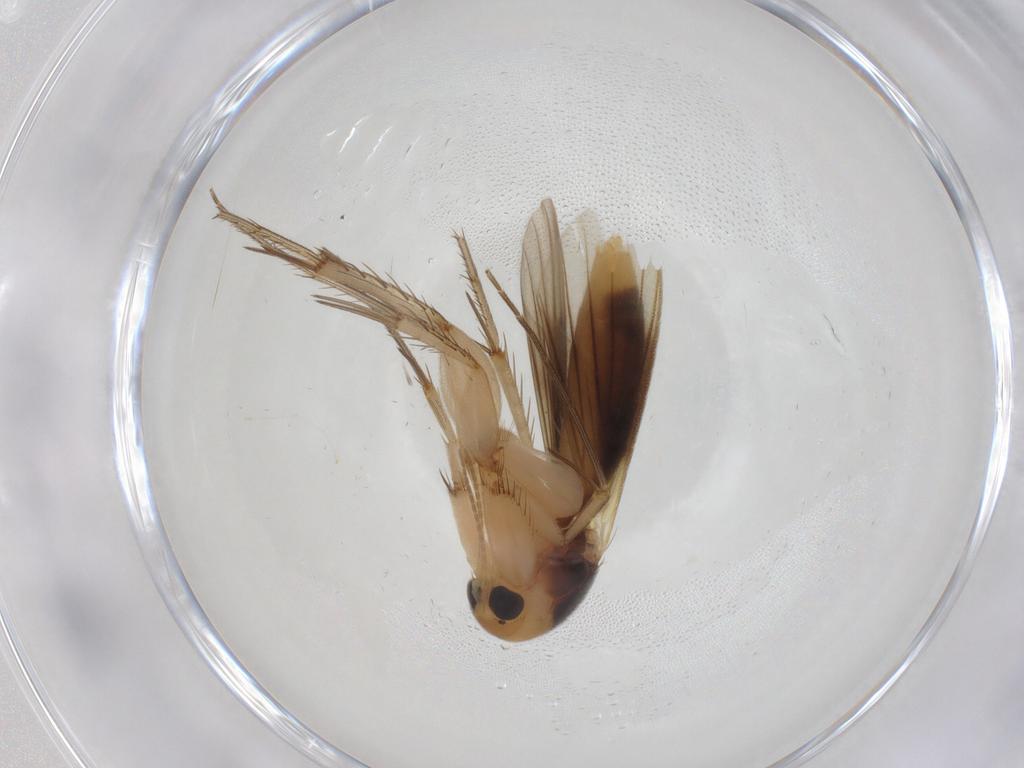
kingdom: Animalia
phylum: Arthropoda
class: Insecta
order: Diptera
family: Mycetophilidae
